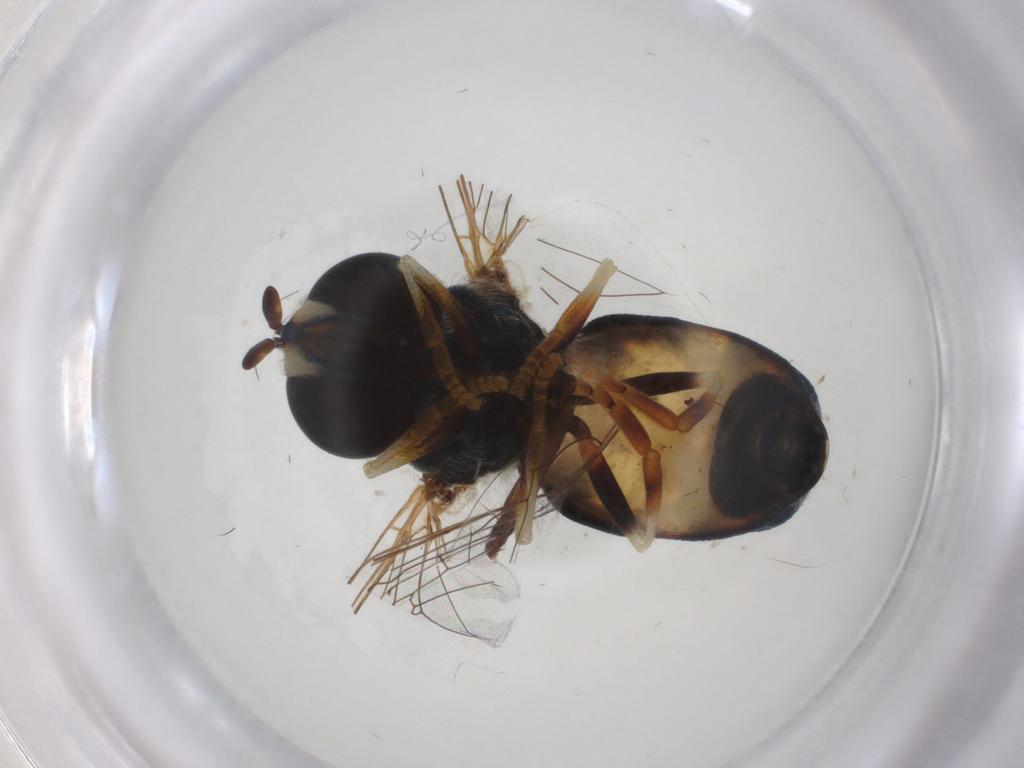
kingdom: Animalia
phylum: Arthropoda
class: Insecta
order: Diptera
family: Syrphidae
